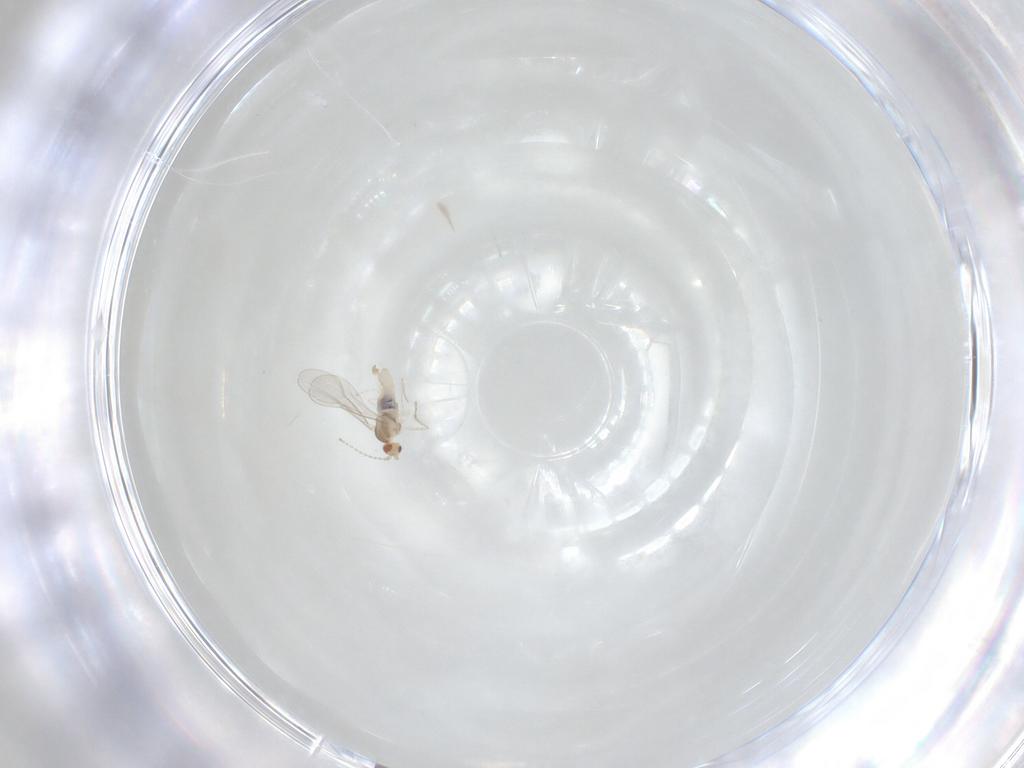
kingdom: Animalia
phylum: Arthropoda
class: Insecta
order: Diptera
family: Cecidomyiidae
